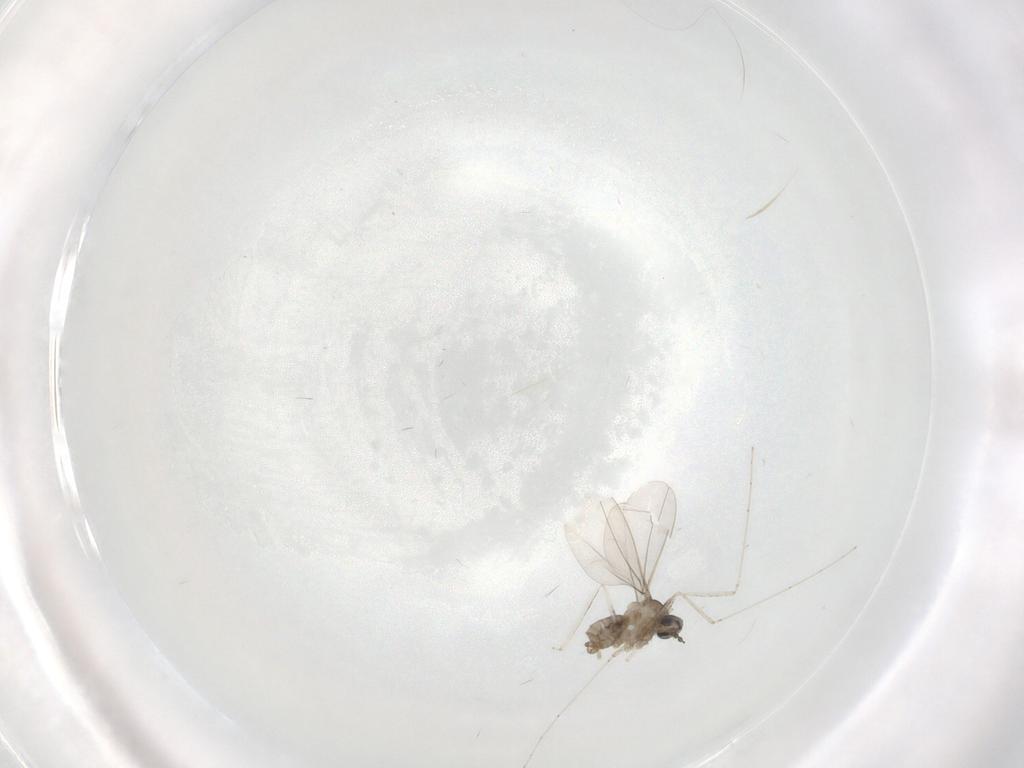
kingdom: Animalia
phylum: Arthropoda
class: Insecta
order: Diptera
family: Cecidomyiidae
